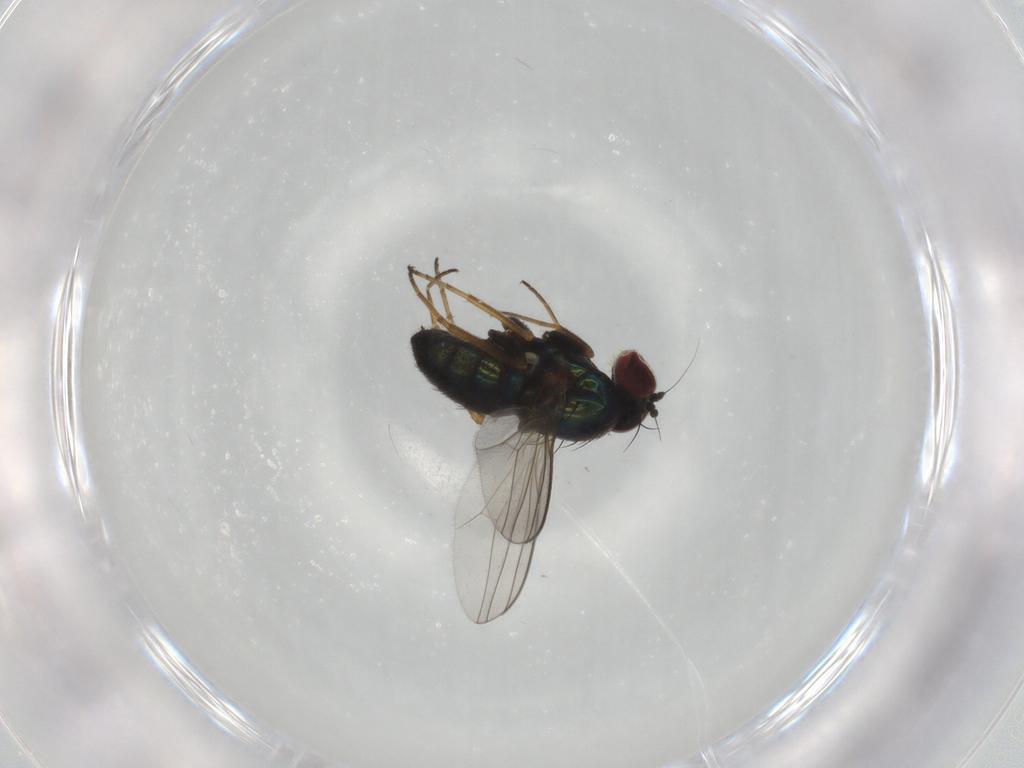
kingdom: Animalia
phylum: Arthropoda
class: Insecta
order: Diptera
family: Dolichopodidae
